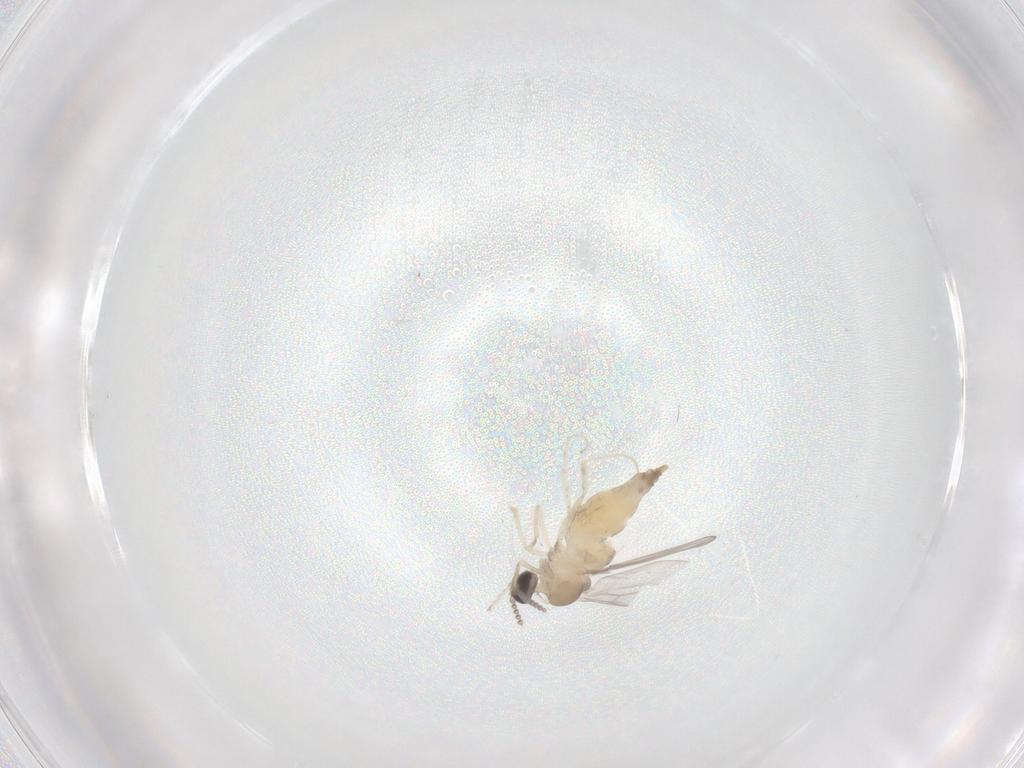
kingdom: Animalia
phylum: Arthropoda
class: Insecta
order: Diptera
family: Cecidomyiidae
